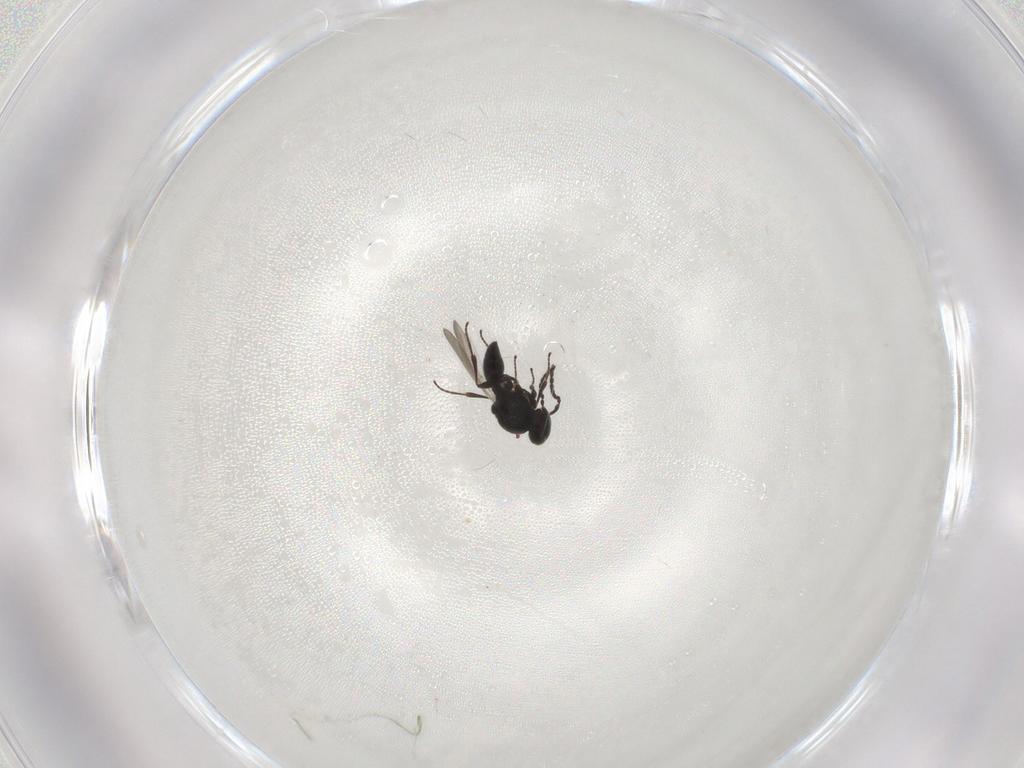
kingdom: Animalia
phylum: Arthropoda
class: Insecta
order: Hymenoptera
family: Platygastridae
